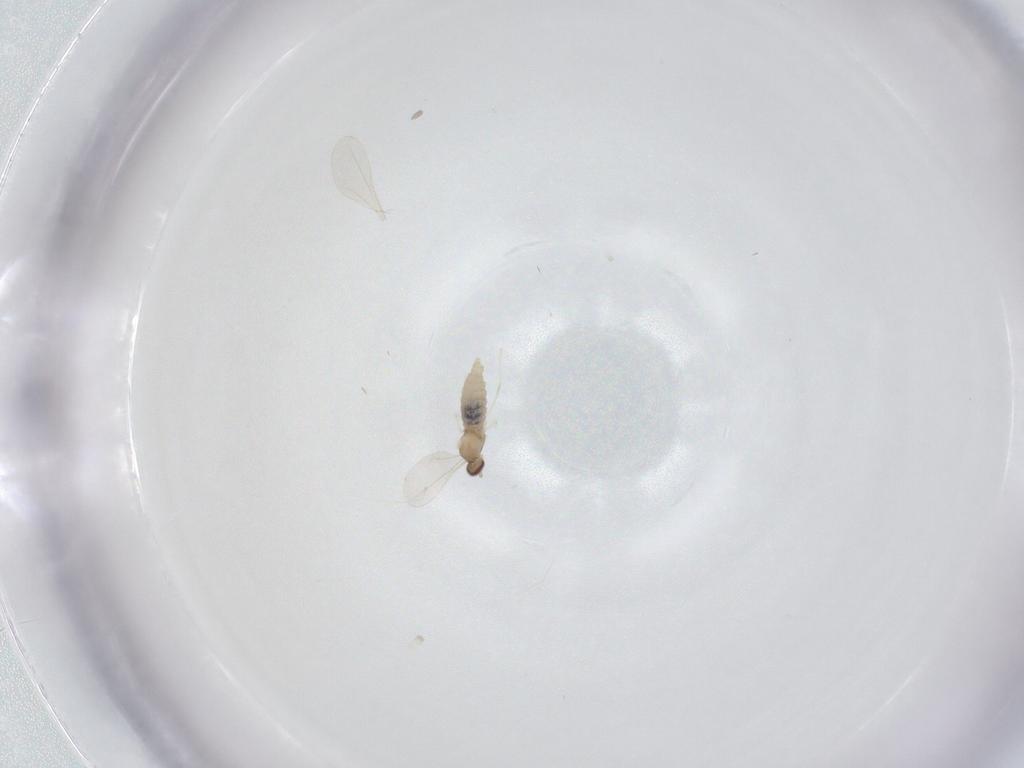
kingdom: Animalia
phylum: Arthropoda
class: Insecta
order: Diptera
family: Cecidomyiidae
